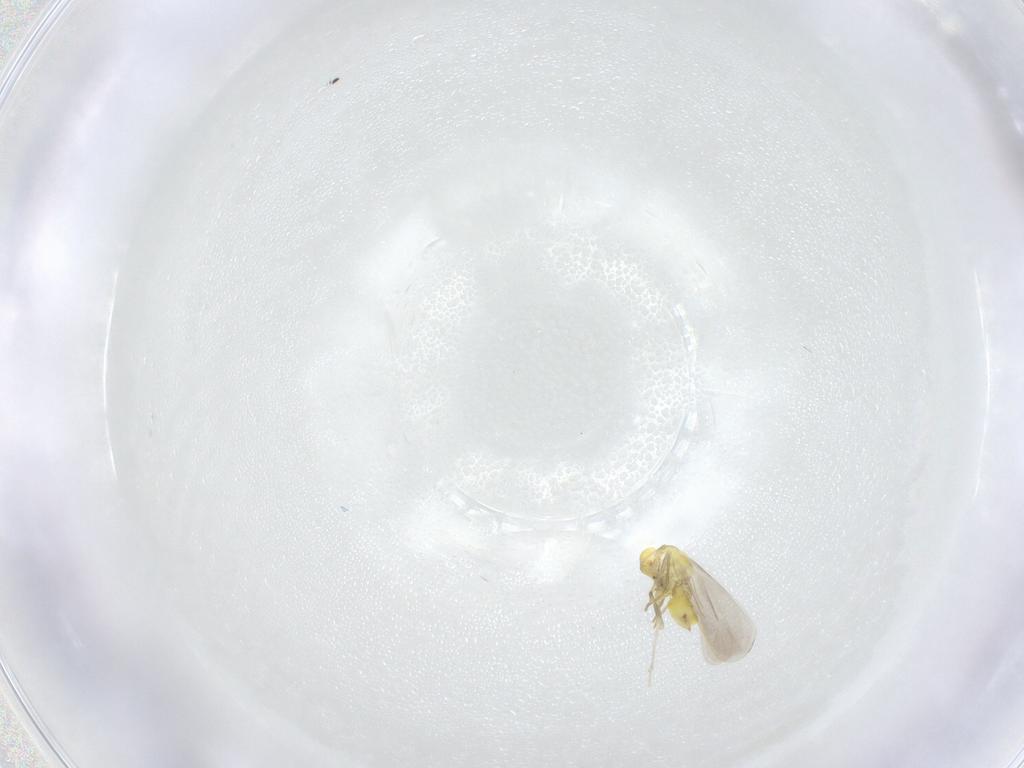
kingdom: Animalia
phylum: Arthropoda
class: Insecta
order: Hemiptera
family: Aleyrodidae
